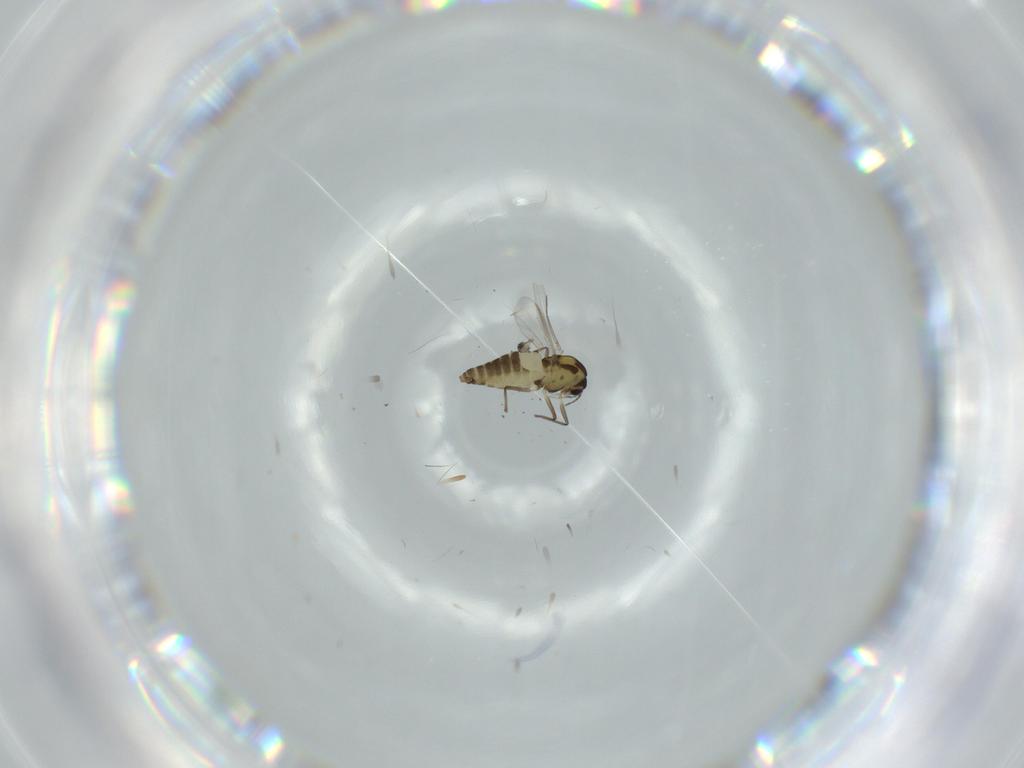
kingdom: Animalia
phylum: Arthropoda
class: Insecta
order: Diptera
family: Chironomidae
